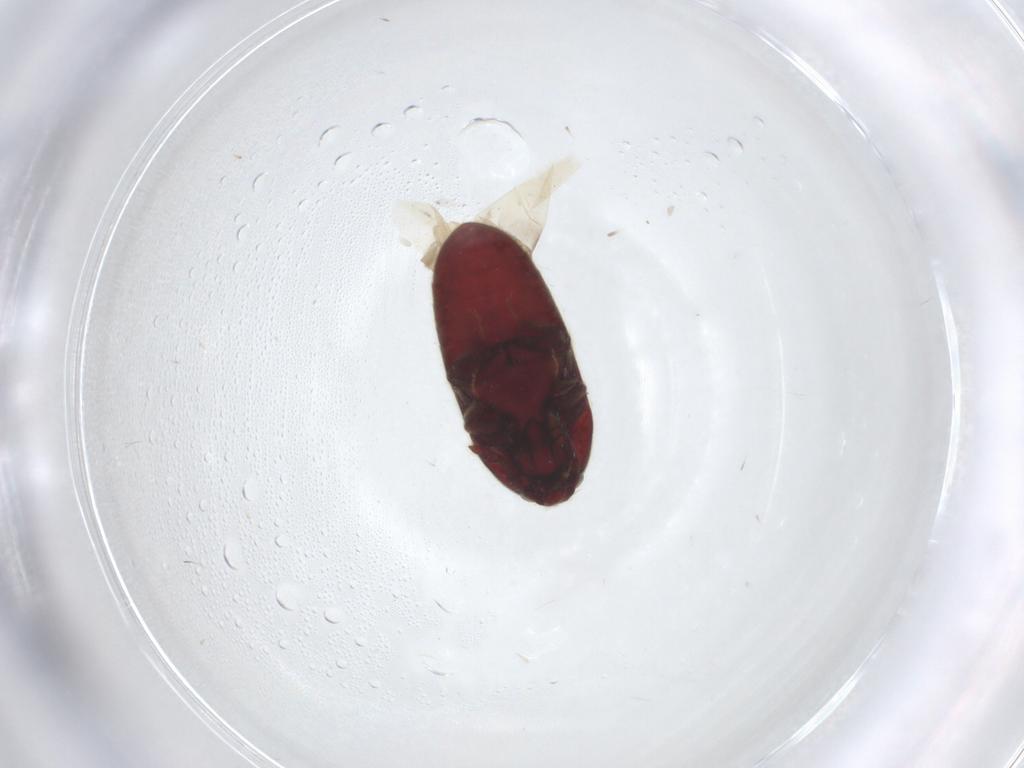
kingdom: Animalia
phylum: Arthropoda
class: Insecta
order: Coleoptera
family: Throscidae
